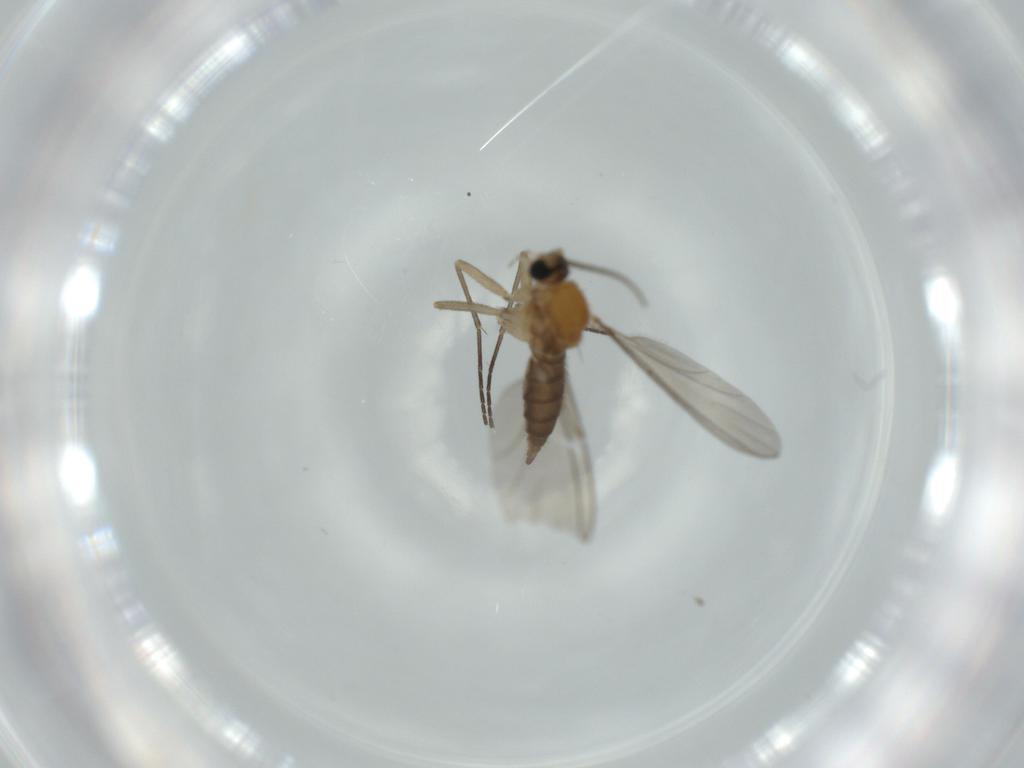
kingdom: Animalia
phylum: Arthropoda
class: Insecta
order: Diptera
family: Sciaridae
